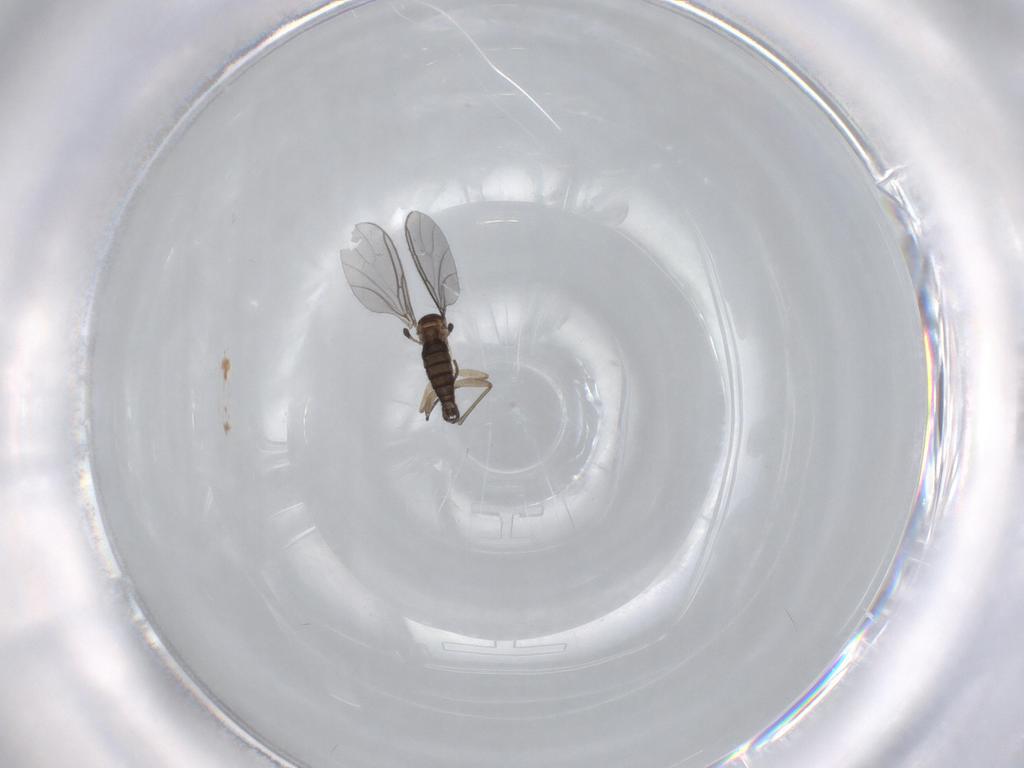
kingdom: Animalia
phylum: Arthropoda
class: Insecta
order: Diptera
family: Sciaridae
